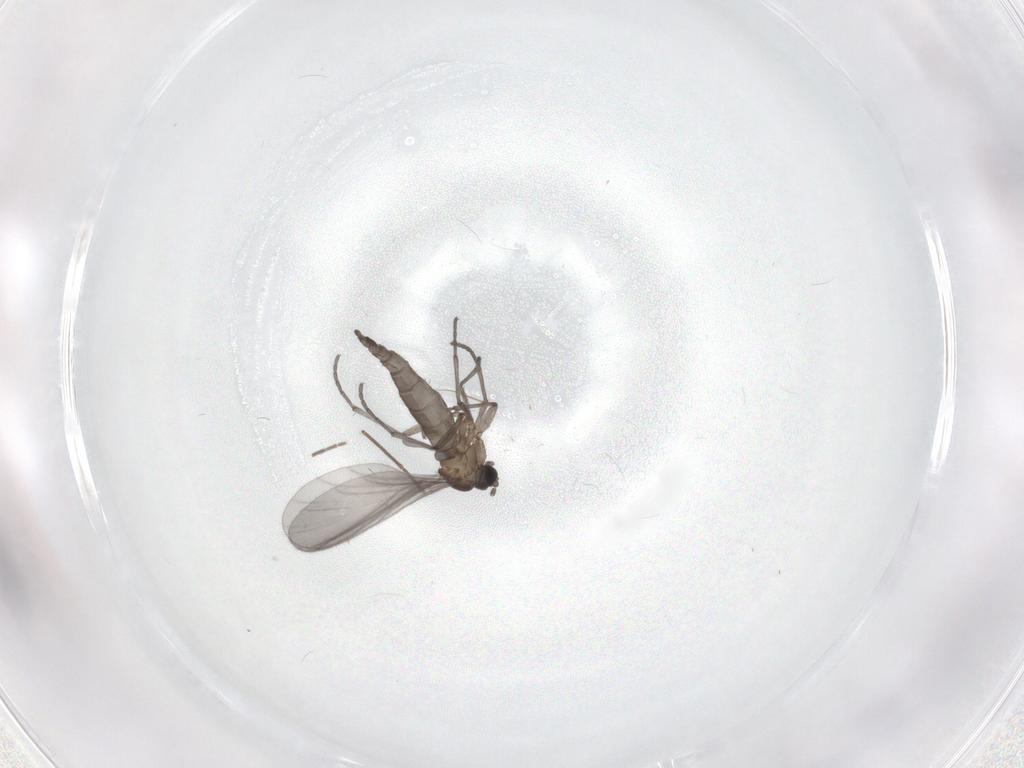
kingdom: Animalia
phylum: Arthropoda
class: Insecta
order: Diptera
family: Sciaridae
